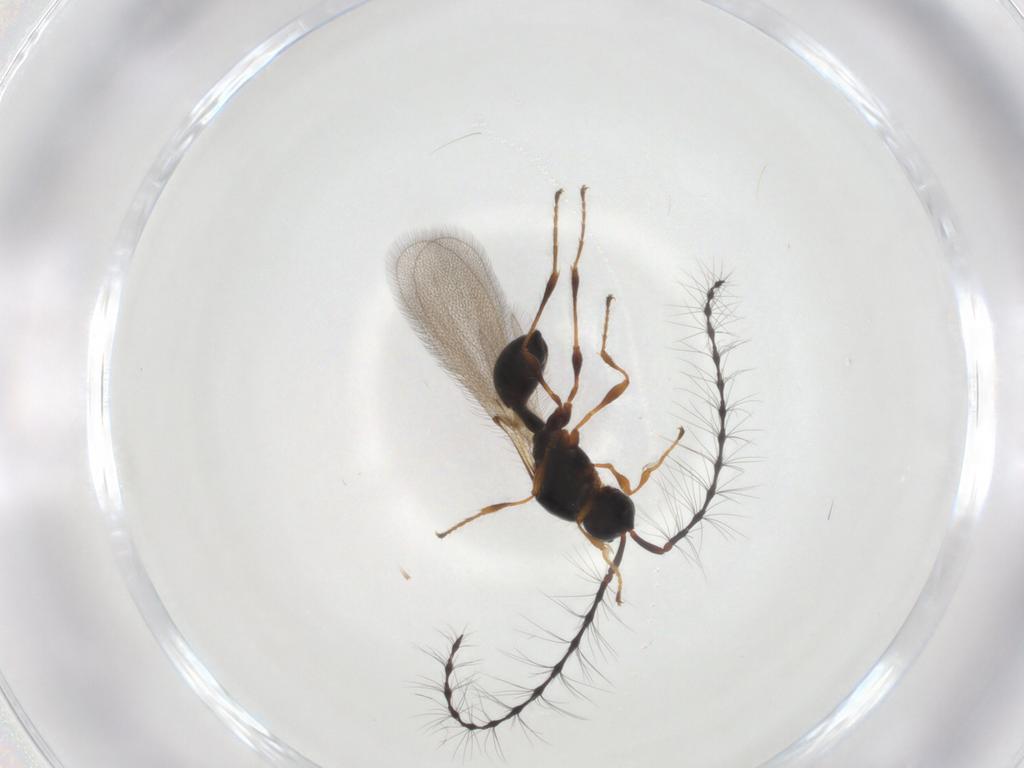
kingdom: Animalia
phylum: Arthropoda
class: Insecta
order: Hymenoptera
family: Diapriidae
